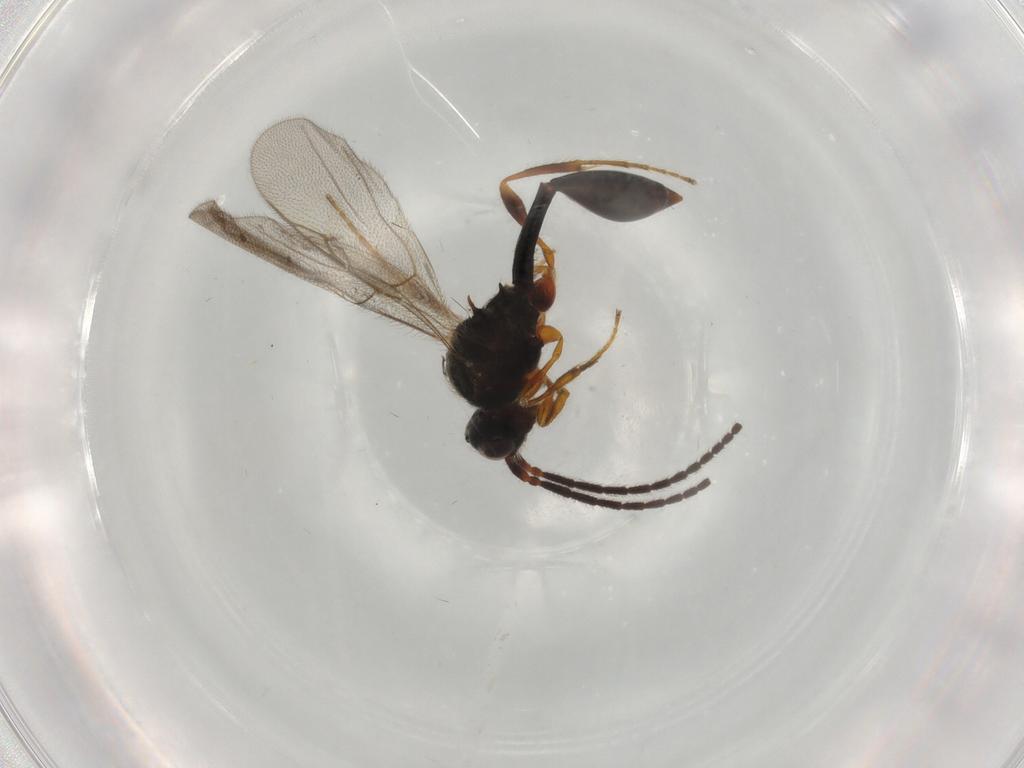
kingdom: Animalia
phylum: Arthropoda
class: Insecta
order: Hymenoptera
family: Diapriidae
